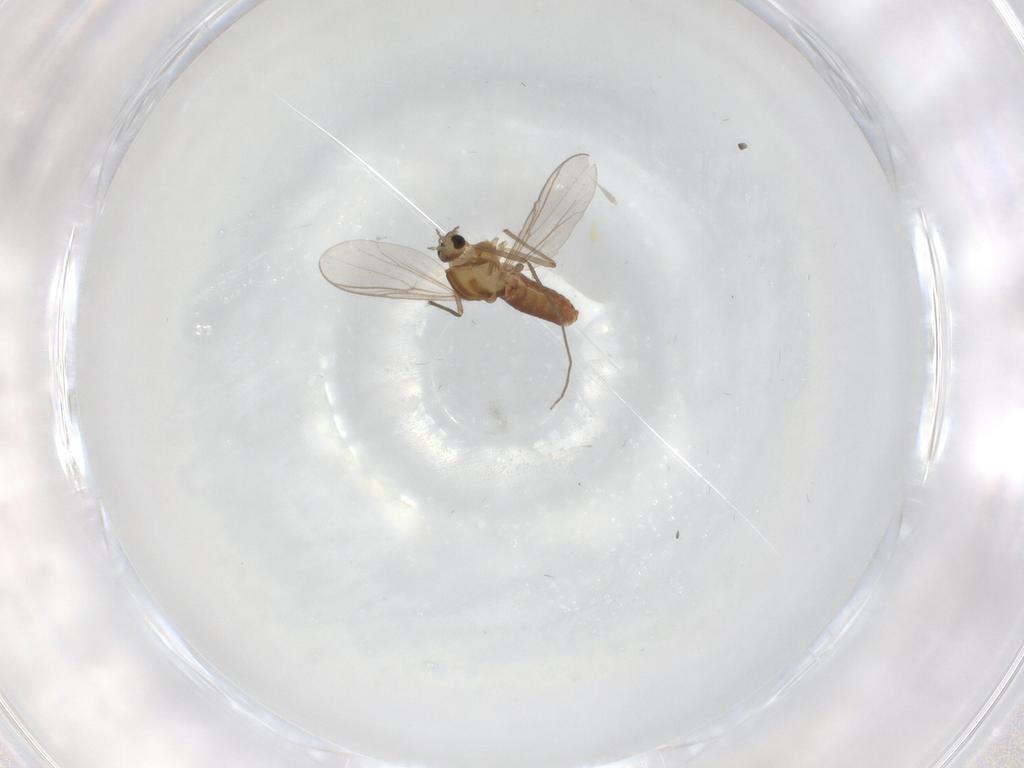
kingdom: Animalia
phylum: Arthropoda
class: Insecta
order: Diptera
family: Chironomidae
